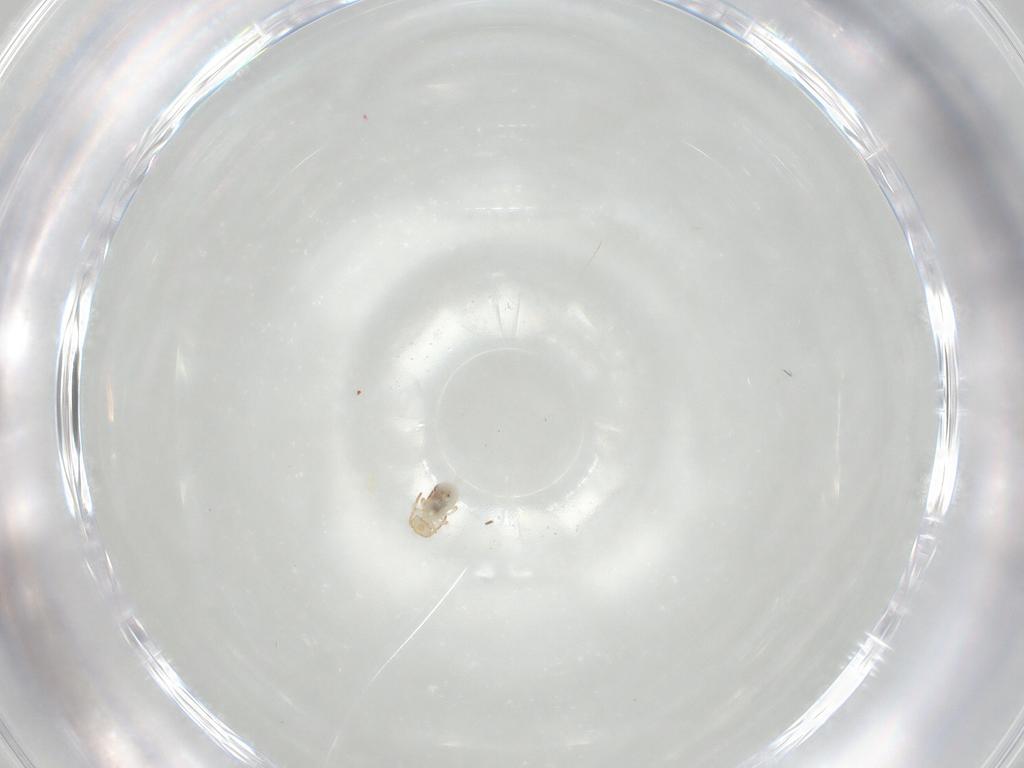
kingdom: Animalia
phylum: Arthropoda
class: Collembola
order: Symphypleona
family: Bourletiellidae
